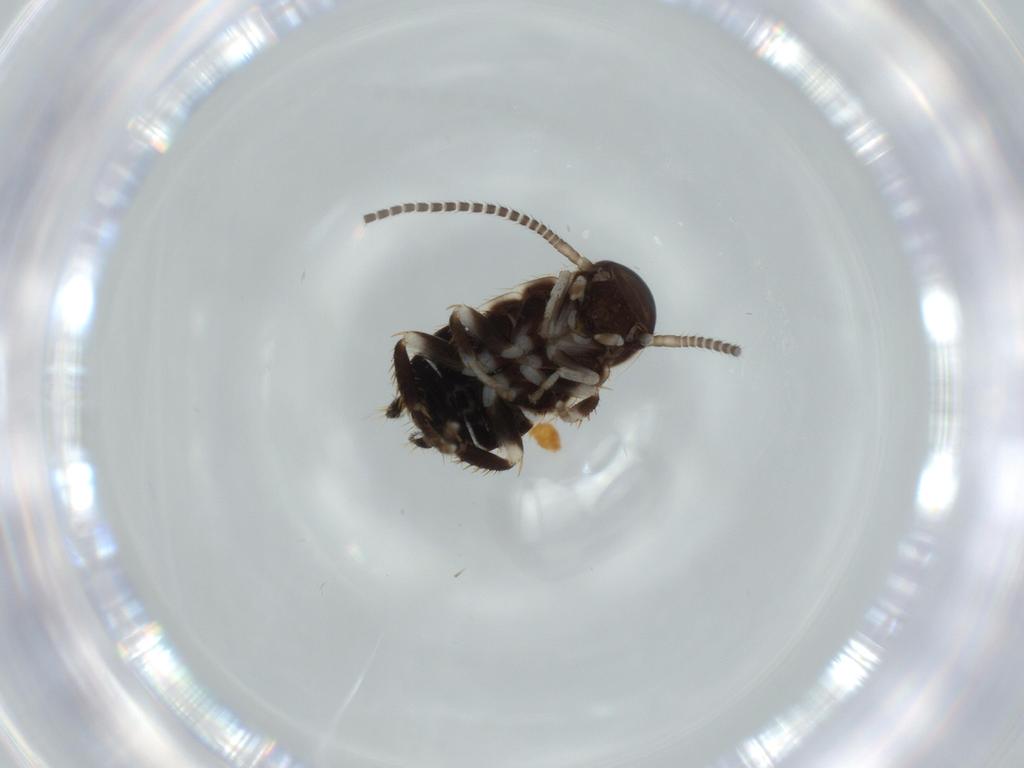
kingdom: Animalia
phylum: Arthropoda
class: Insecta
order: Blattodea
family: Ectobiidae
